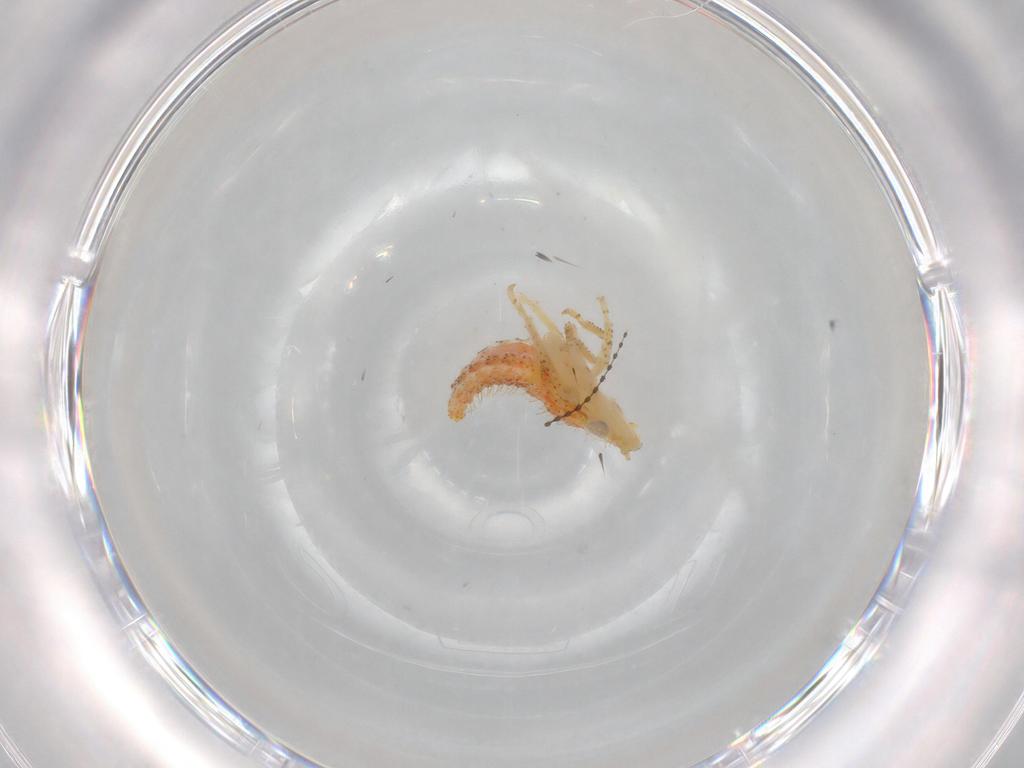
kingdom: Animalia
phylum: Arthropoda
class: Insecta
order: Hemiptera
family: Cicadellidae
